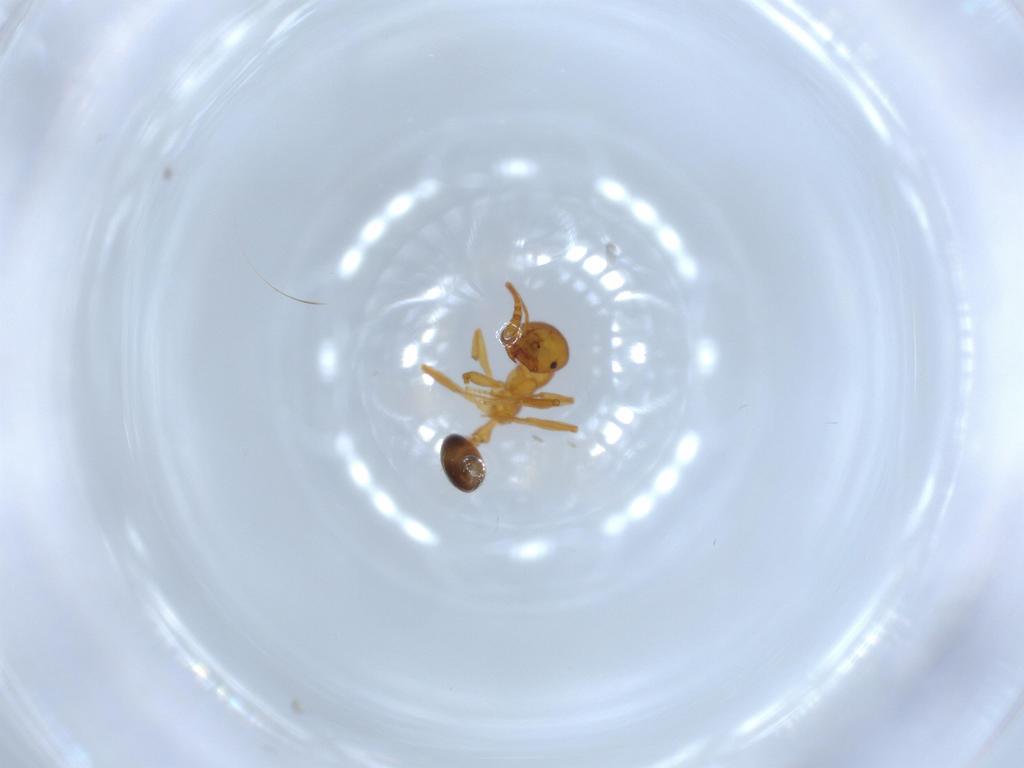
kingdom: Animalia
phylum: Arthropoda
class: Insecta
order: Hymenoptera
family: Formicidae
